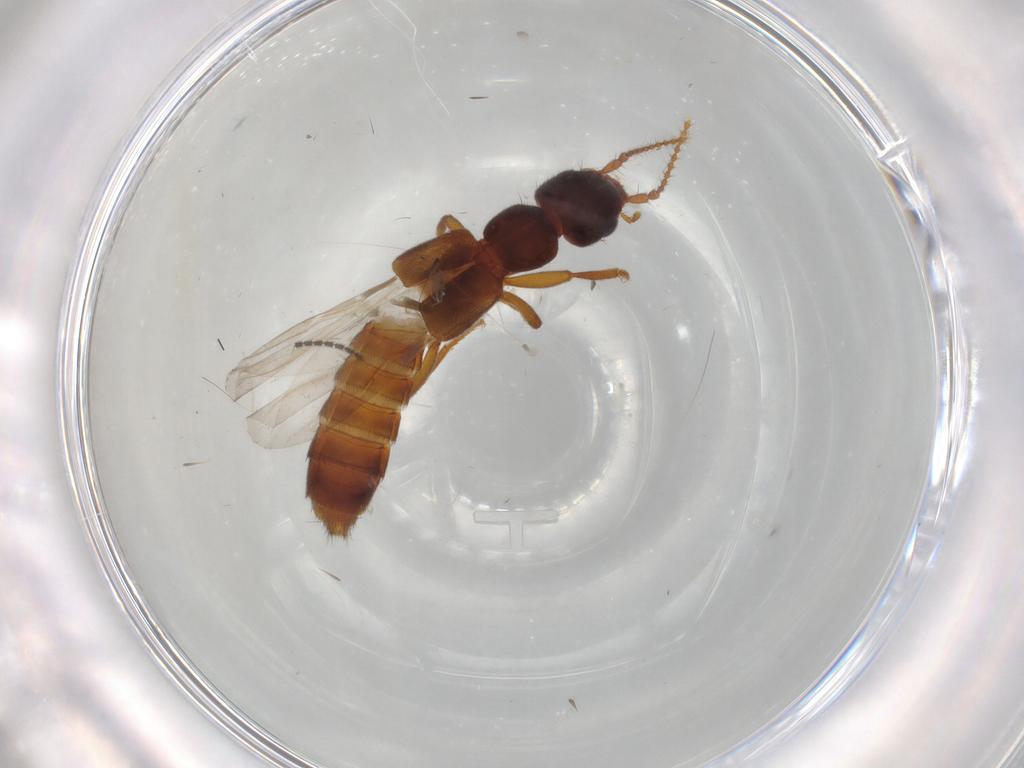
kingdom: Animalia
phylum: Arthropoda
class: Insecta
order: Coleoptera
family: Staphylinidae
